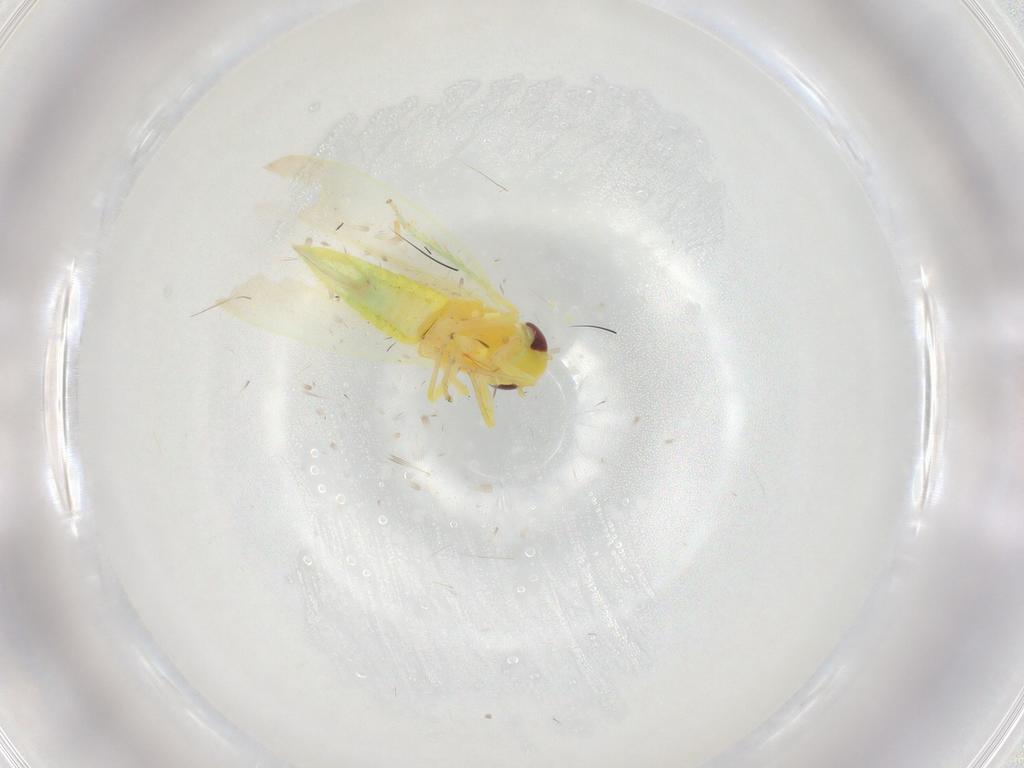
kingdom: Animalia
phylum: Arthropoda
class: Insecta
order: Hemiptera
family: Cicadellidae
